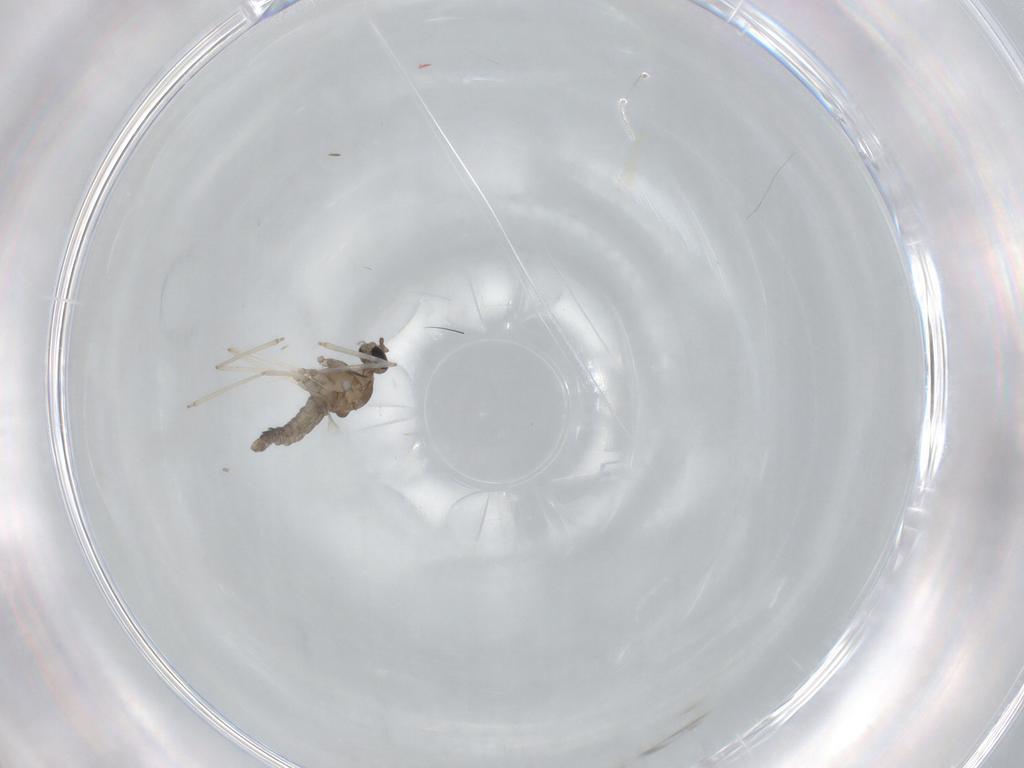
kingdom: Animalia
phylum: Arthropoda
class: Insecta
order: Diptera
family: Cecidomyiidae
